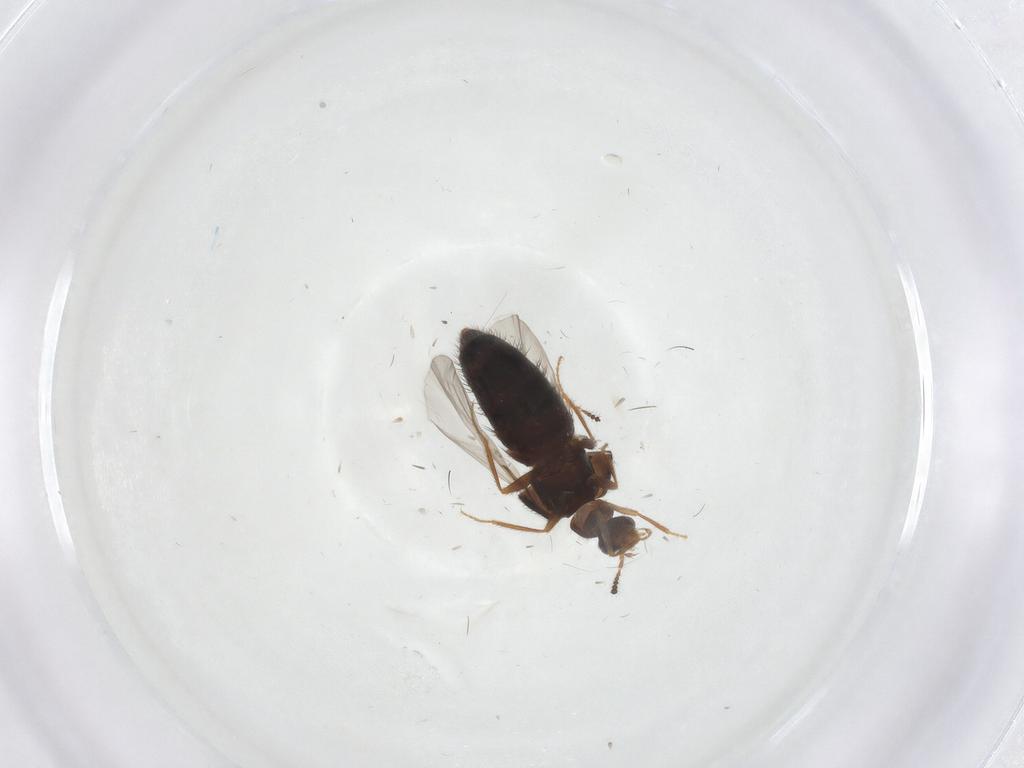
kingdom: Animalia
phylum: Arthropoda
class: Insecta
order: Coleoptera
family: Staphylinidae
